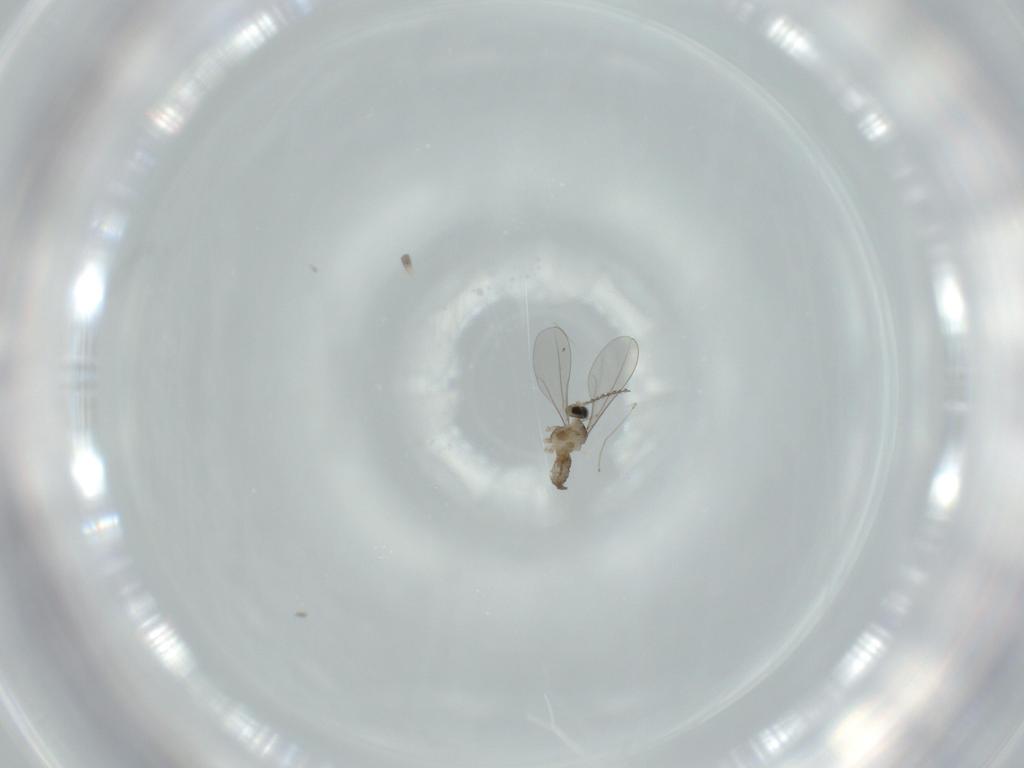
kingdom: Animalia
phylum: Arthropoda
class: Insecta
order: Diptera
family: Cecidomyiidae
